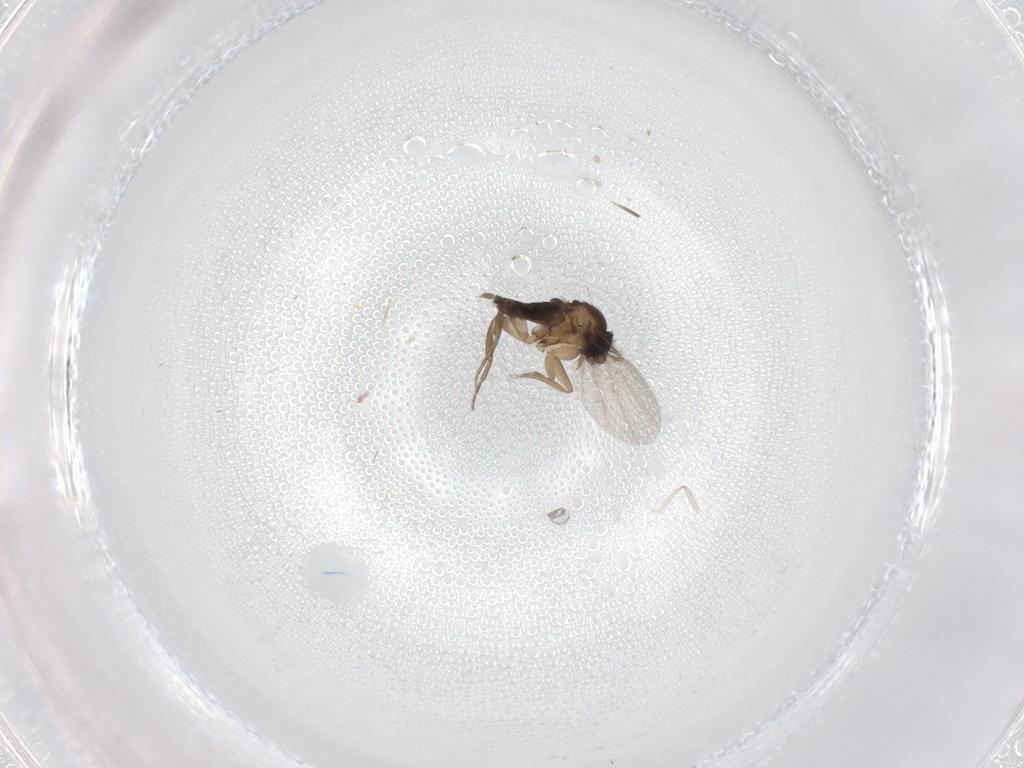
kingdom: Animalia
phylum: Arthropoda
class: Insecta
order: Diptera
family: Phoridae
